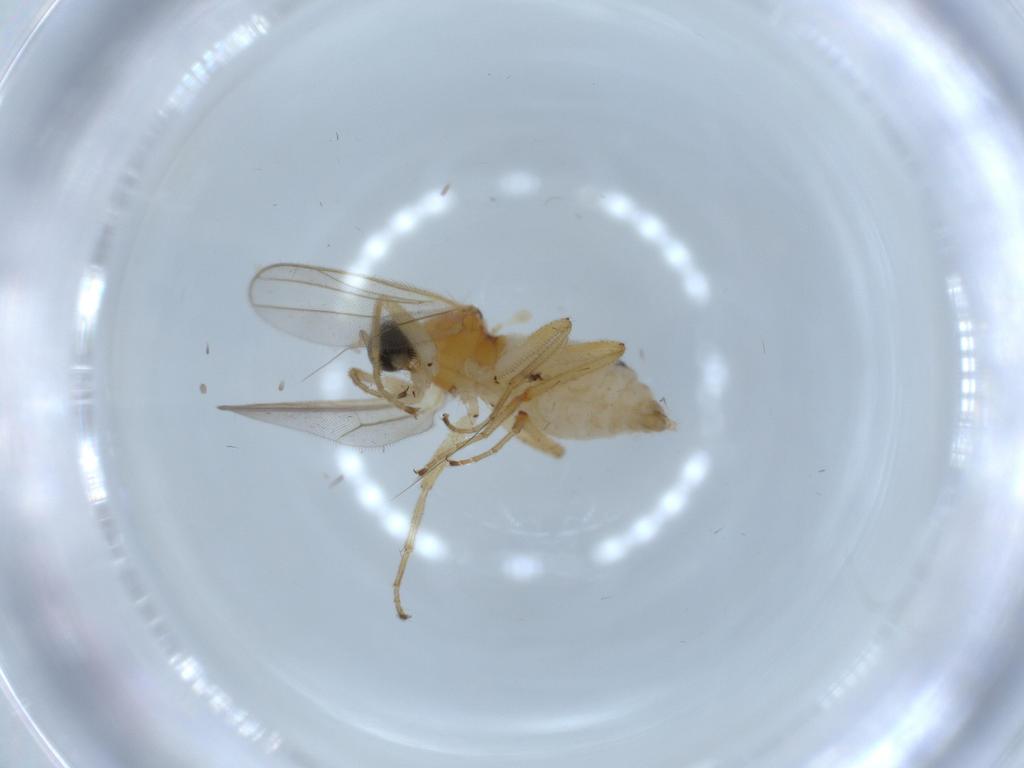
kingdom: Animalia
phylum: Arthropoda
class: Insecta
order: Diptera
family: Hybotidae
